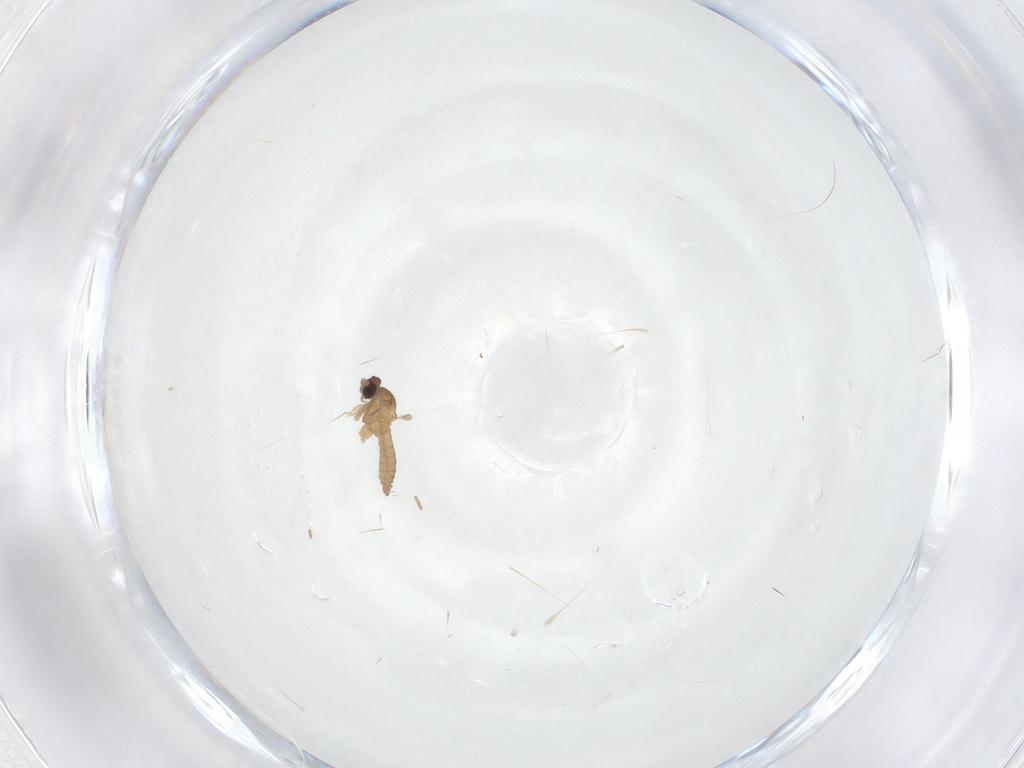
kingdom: Animalia
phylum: Arthropoda
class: Insecta
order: Diptera
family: Cecidomyiidae
